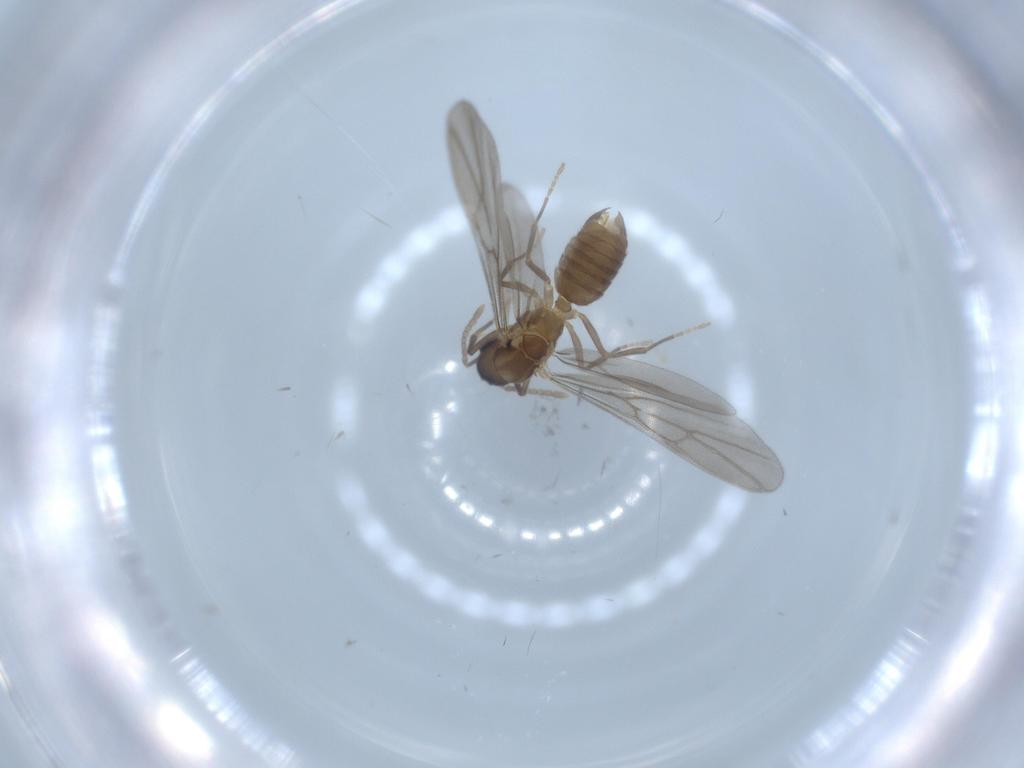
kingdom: Animalia
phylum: Arthropoda
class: Insecta
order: Hymenoptera
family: Formicidae
